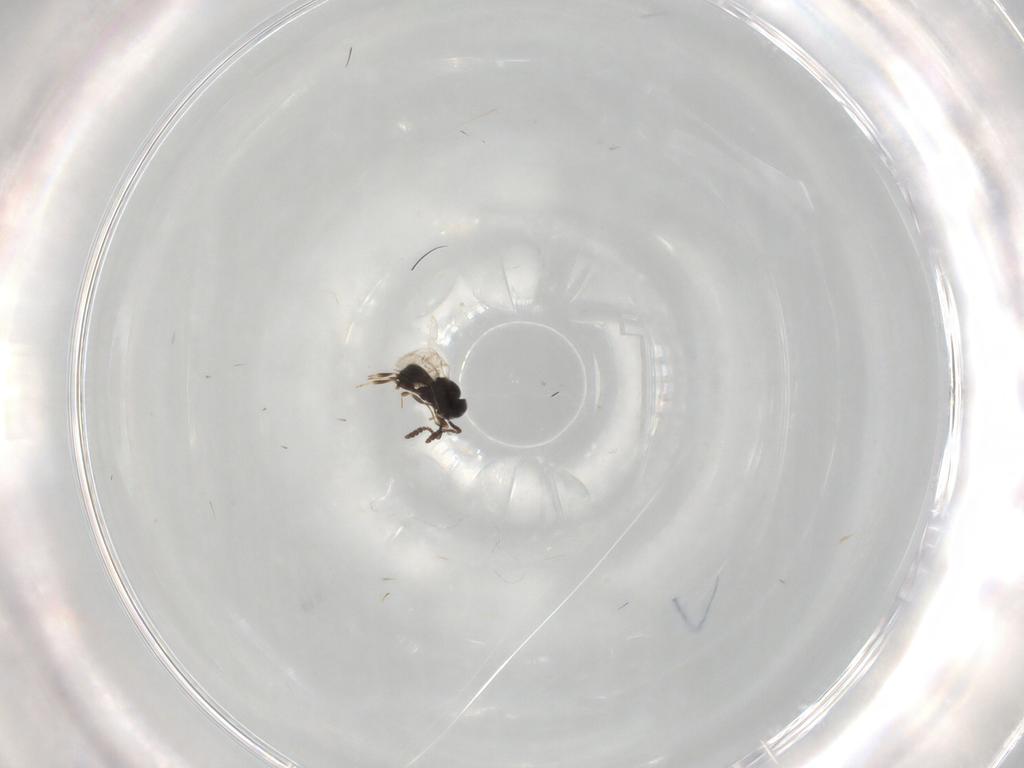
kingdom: Animalia
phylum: Arthropoda
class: Insecta
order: Hymenoptera
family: Scelionidae
